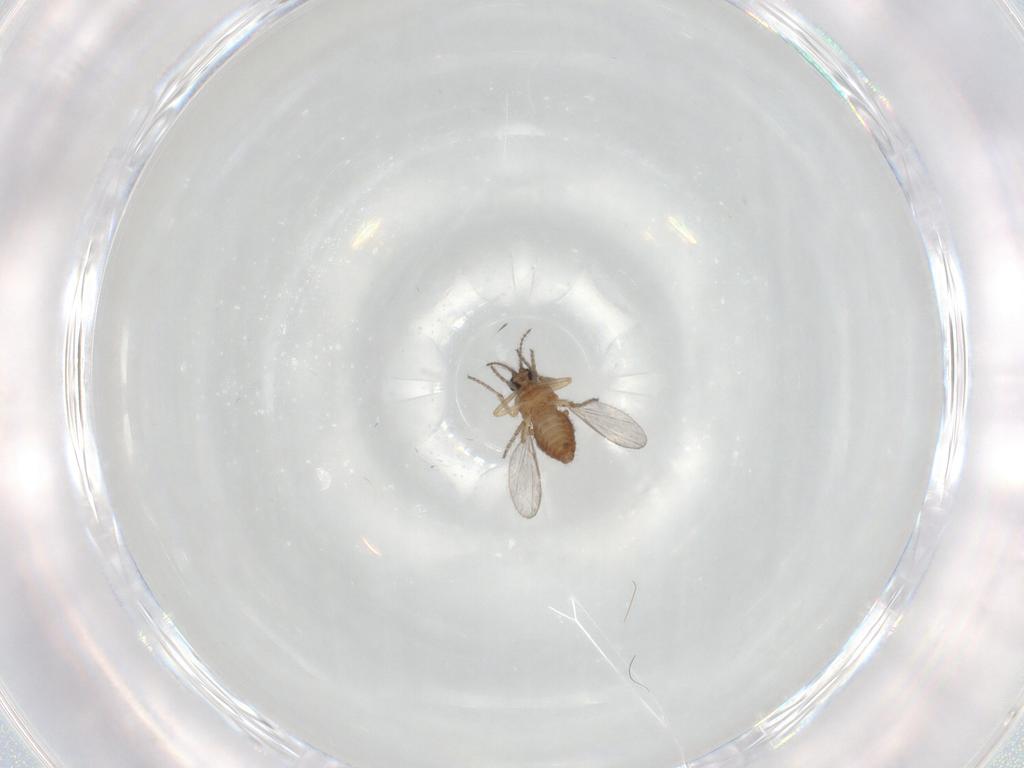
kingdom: Animalia
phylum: Arthropoda
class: Insecta
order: Diptera
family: Ceratopogonidae
